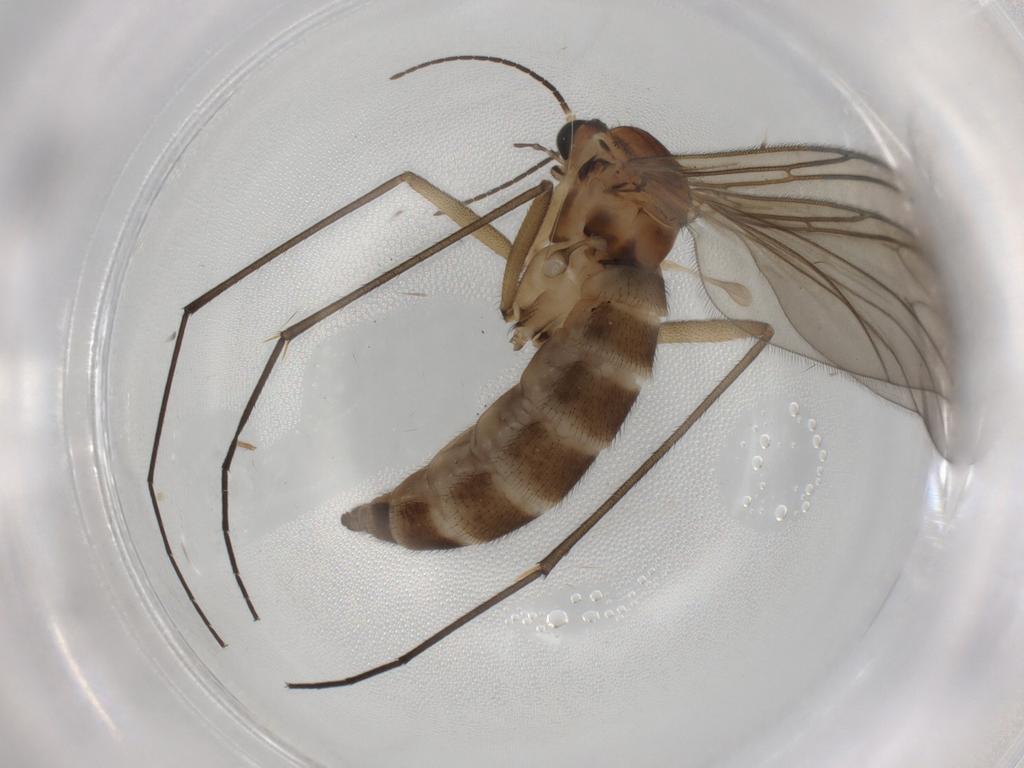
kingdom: Animalia
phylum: Arthropoda
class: Insecta
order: Diptera
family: Sciaridae
